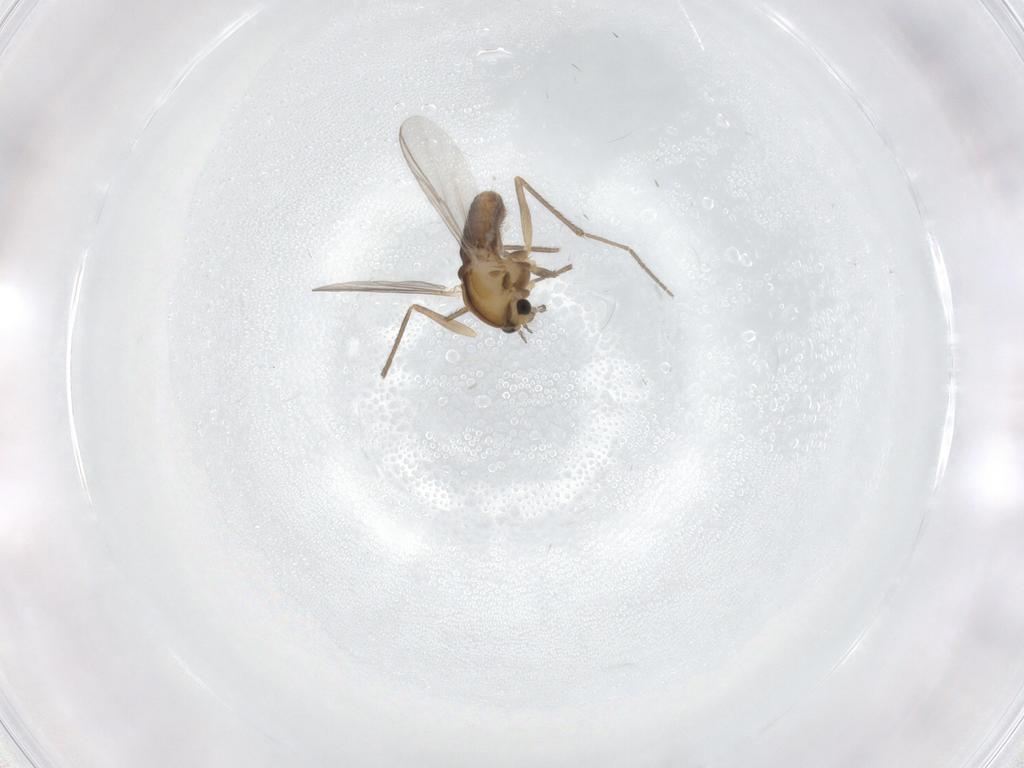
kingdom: Animalia
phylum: Arthropoda
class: Insecta
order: Diptera
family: Chironomidae
